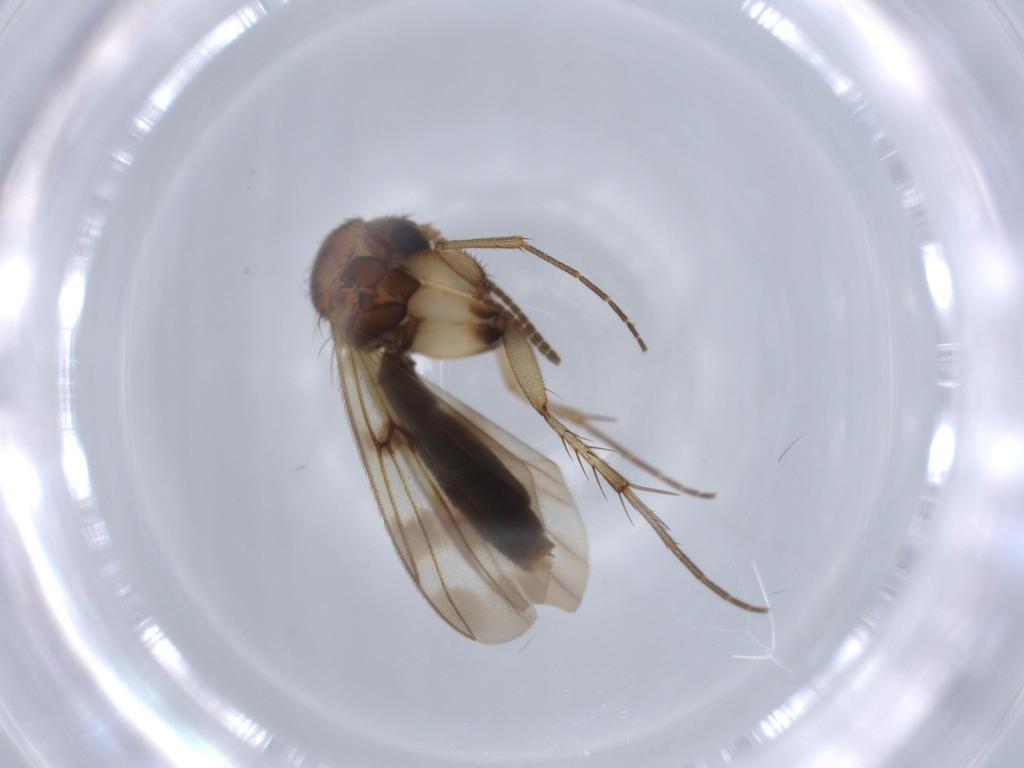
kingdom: Animalia
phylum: Arthropoda
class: Insecta
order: Diptera
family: Phoridae
